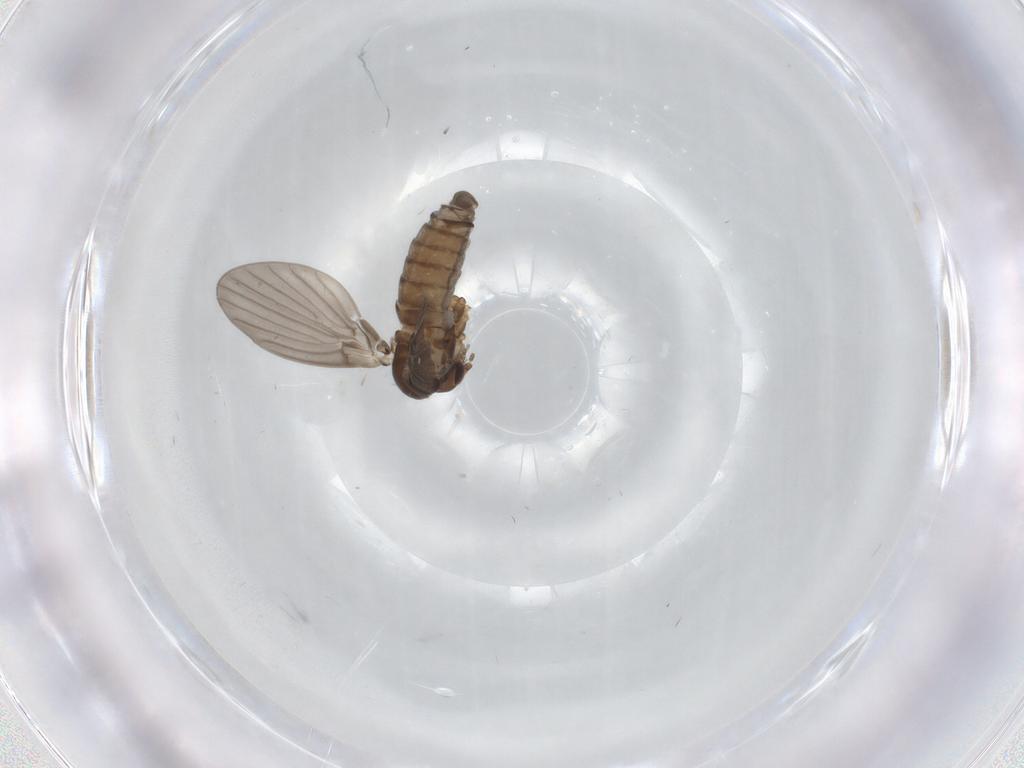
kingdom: Animalia
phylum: Arthropoda
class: Insecta
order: Diptera
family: Psychodidae
